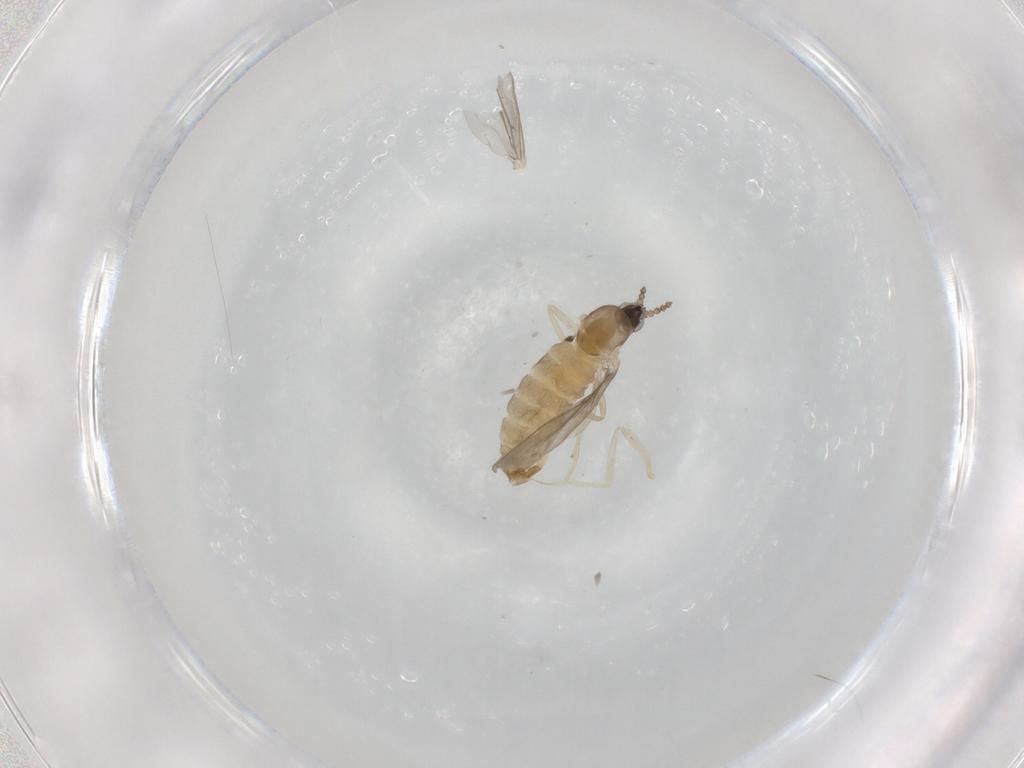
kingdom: Animalia
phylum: Arthropoda
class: Insecta
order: Diptera
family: Cecidomyiidae
